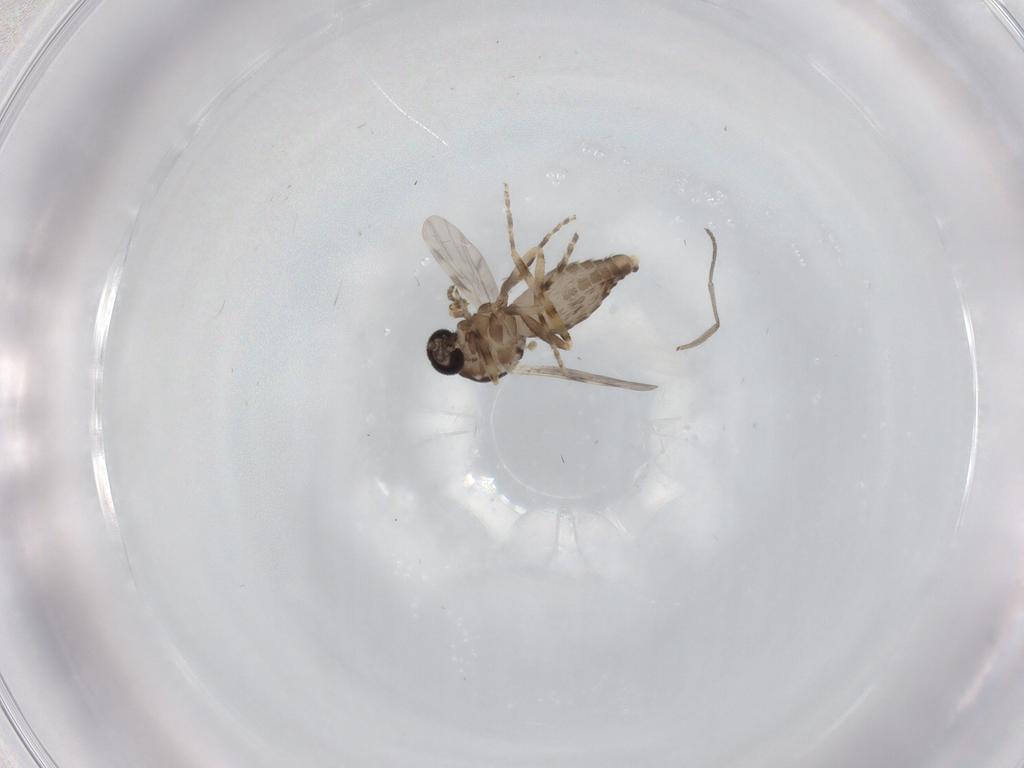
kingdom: Animalia
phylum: Arthropoda
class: Insecta
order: Diptera
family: Ceratopogonidae
